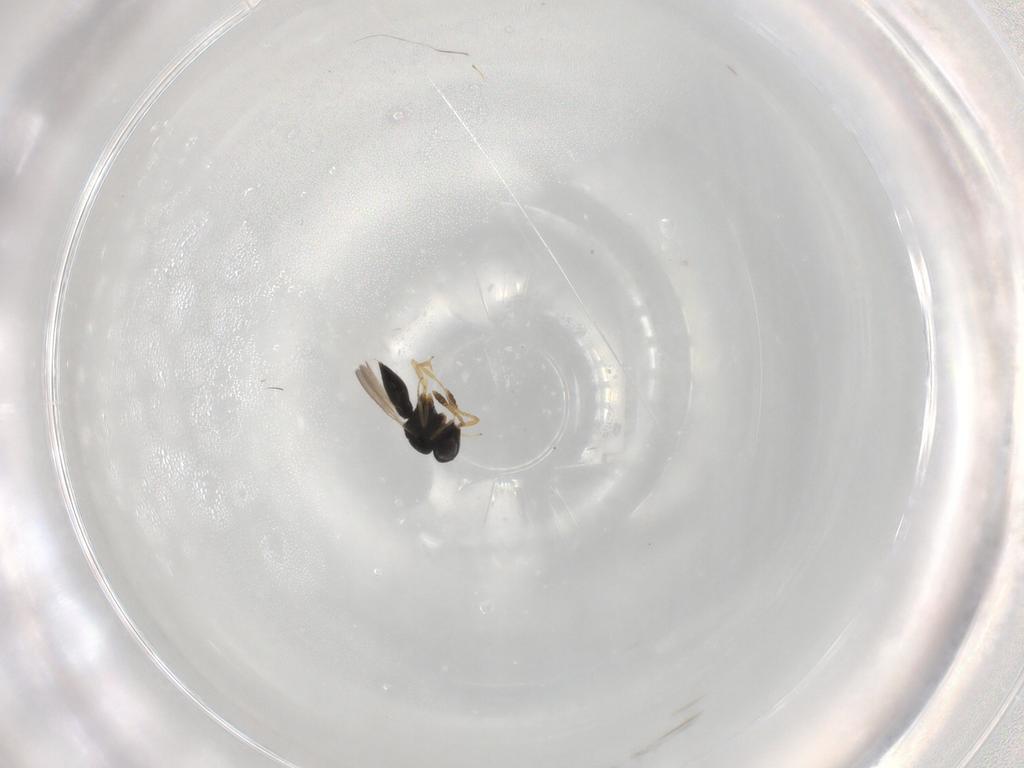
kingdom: Animalia
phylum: Arthropoda
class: Insecta
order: Hymenoptera
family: Scelionidae
